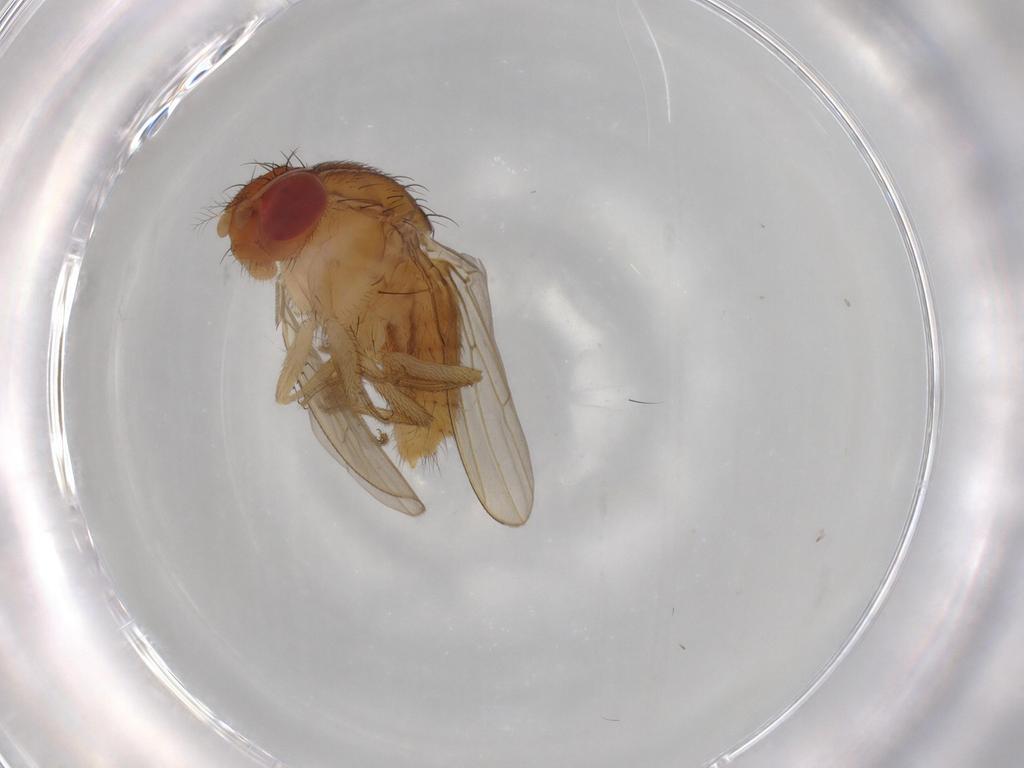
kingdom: Animalia
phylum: Arthropoda
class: Insecta
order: Diptera
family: Drosophilidae
